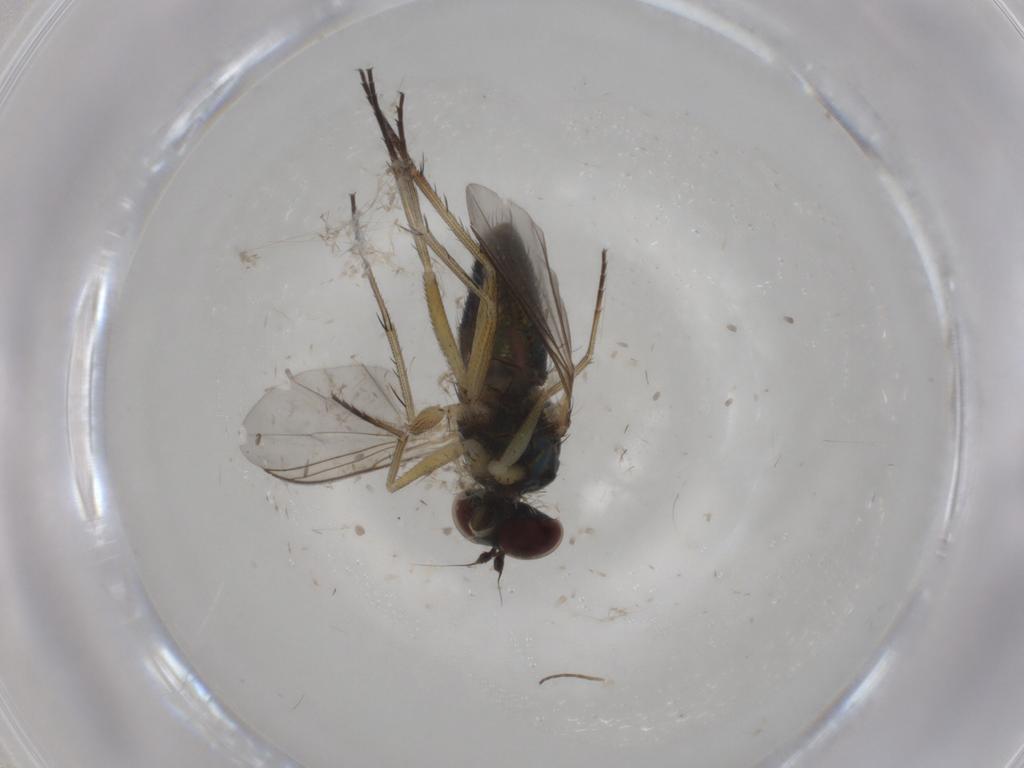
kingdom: Animalia
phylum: Arthropoda
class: Insecta
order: Diptera
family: Dolichopodidae
